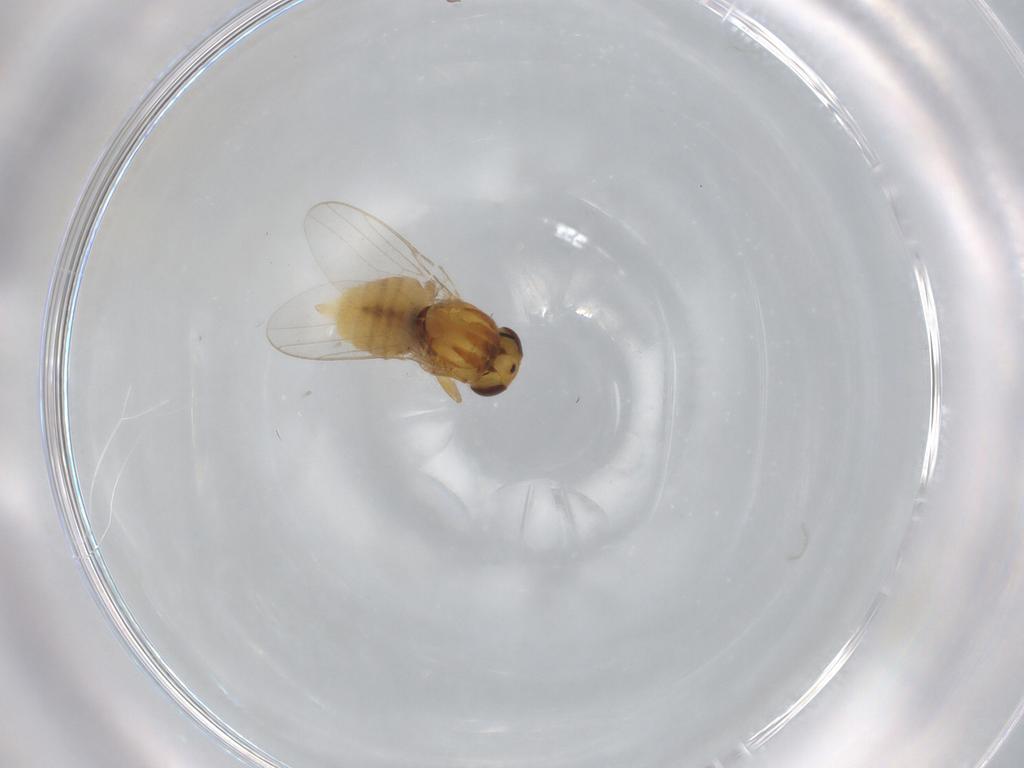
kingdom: Animalia
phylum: Arthropoda
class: Insecta
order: Diptera
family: Chloropidae
